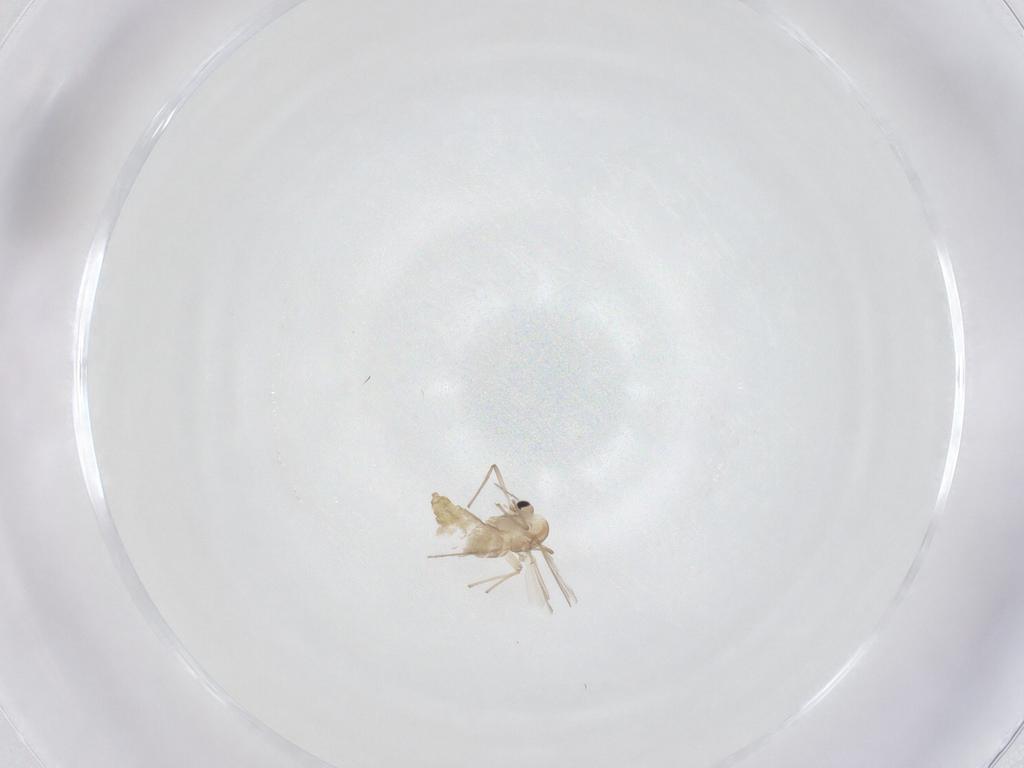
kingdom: Animalia
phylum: Arthropoda
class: Insecta
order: Diptera
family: Chironomidae
